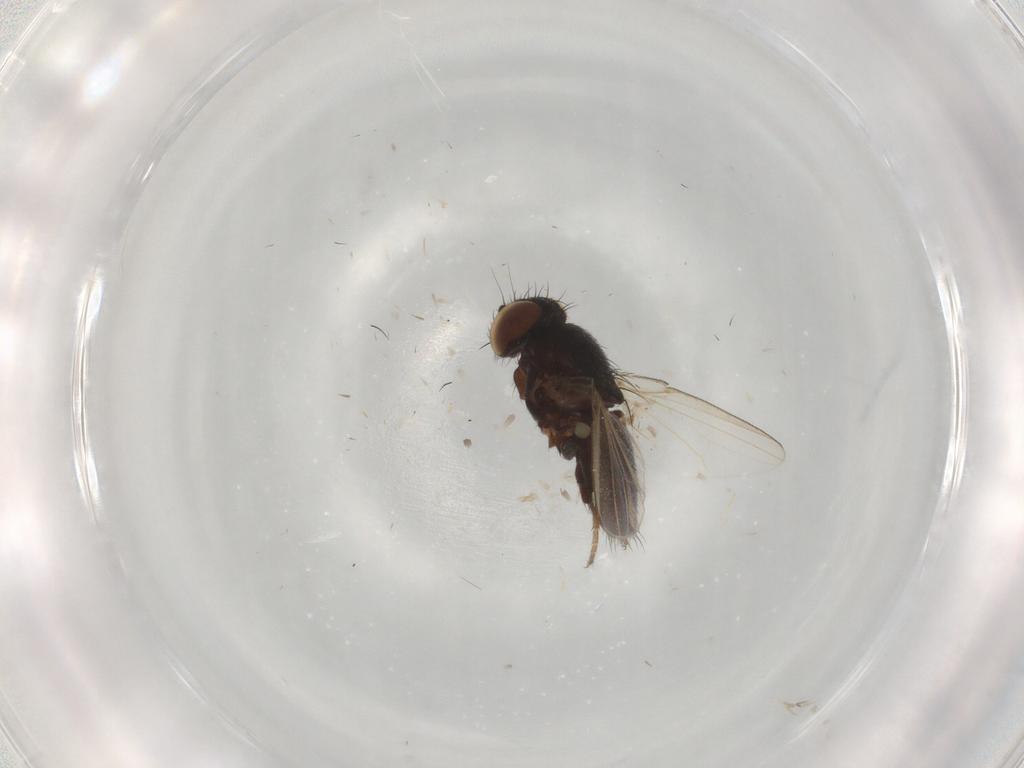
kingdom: Animalia
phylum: Arthropoda
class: Insecta
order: Diptera
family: Milichiidae
